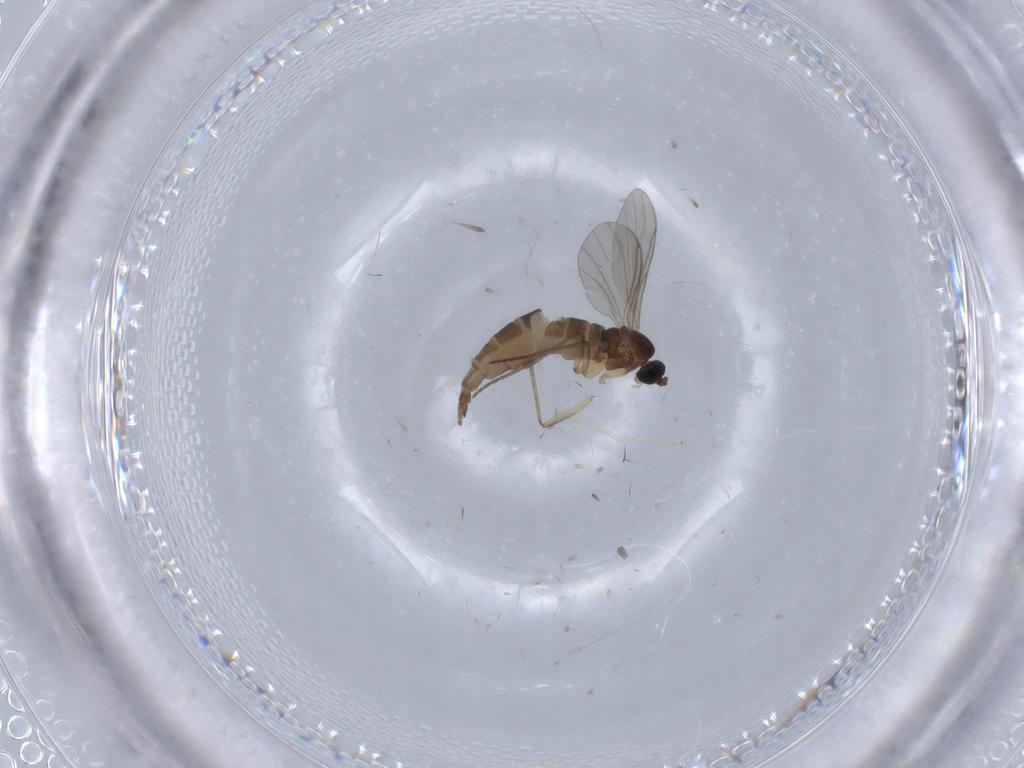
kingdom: Animalia
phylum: Arthropoda
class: Insecta
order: Diptera
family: Sciaridae
